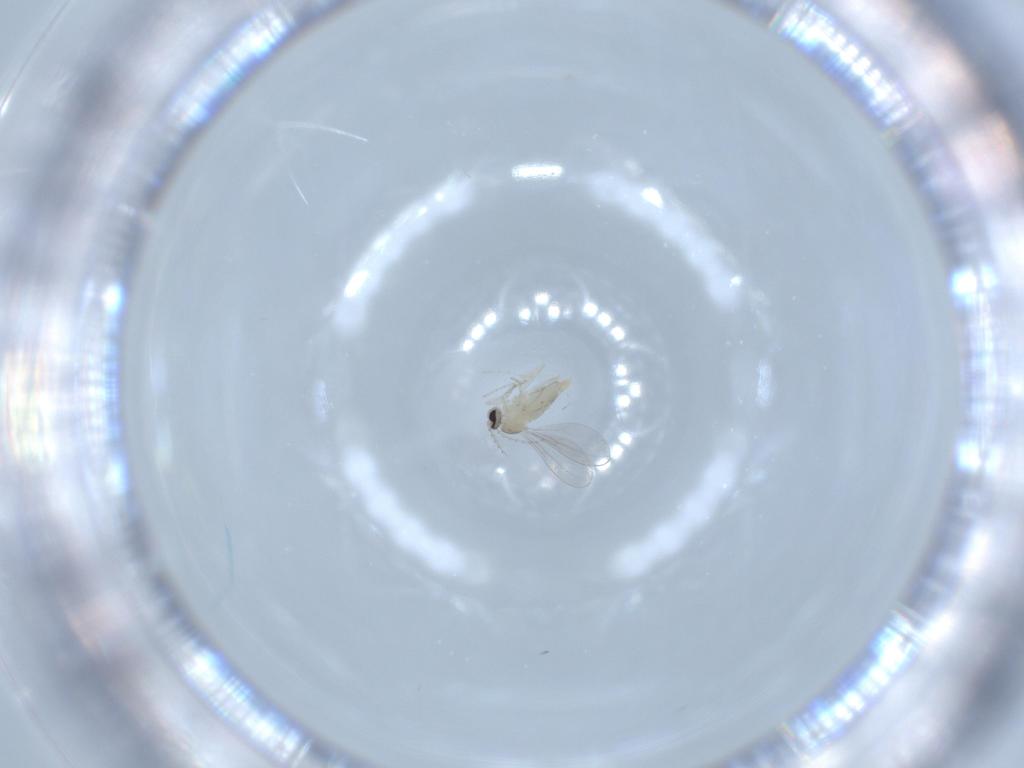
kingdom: Animalia
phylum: Arthropoda
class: Insecta
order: Diptera
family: Cecidomyiidae
